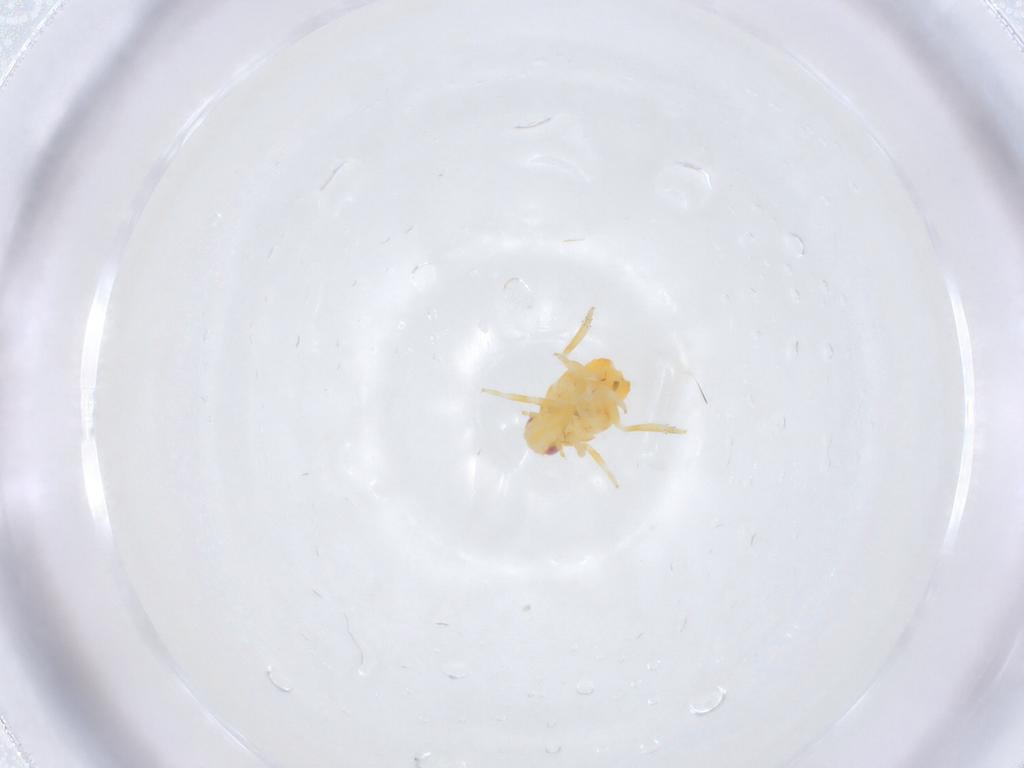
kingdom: Animalia
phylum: Arthropoda
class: Insecta
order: Hemiptera
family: Fulgoroidea_incertae_sedis
